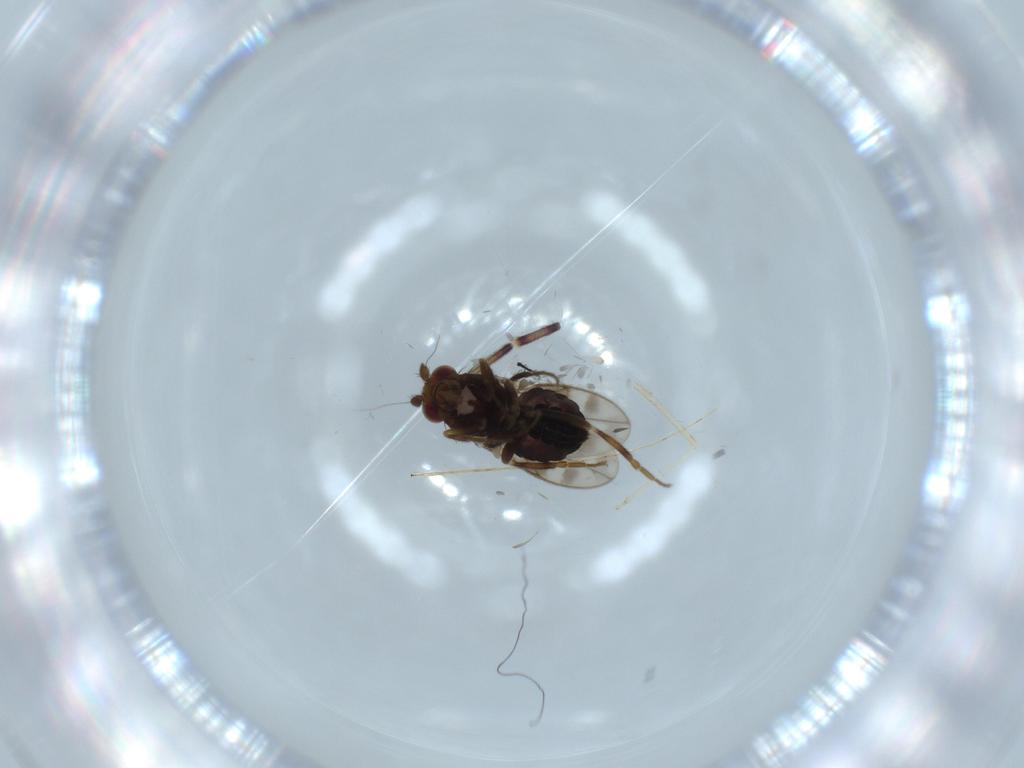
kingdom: Animalia
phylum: Arthropoda
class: Insecta
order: Diptera
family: Sphaeroceridae
